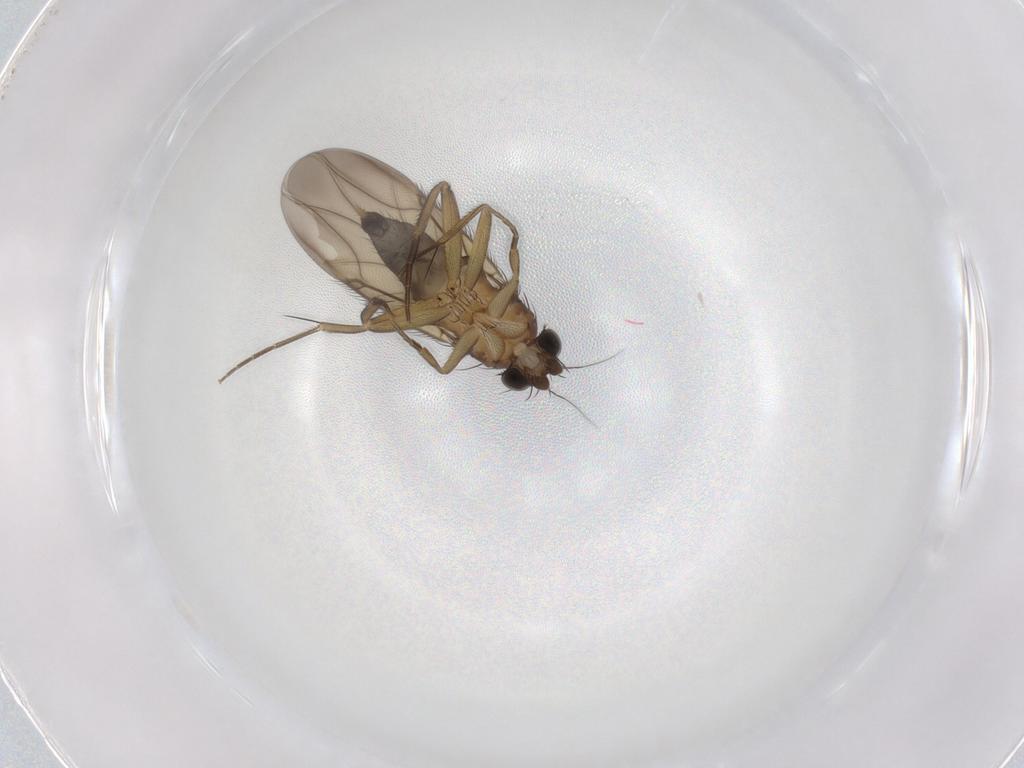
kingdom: Animalia
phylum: Arthropoda
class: Insecta
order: Diptera
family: Phoridae
